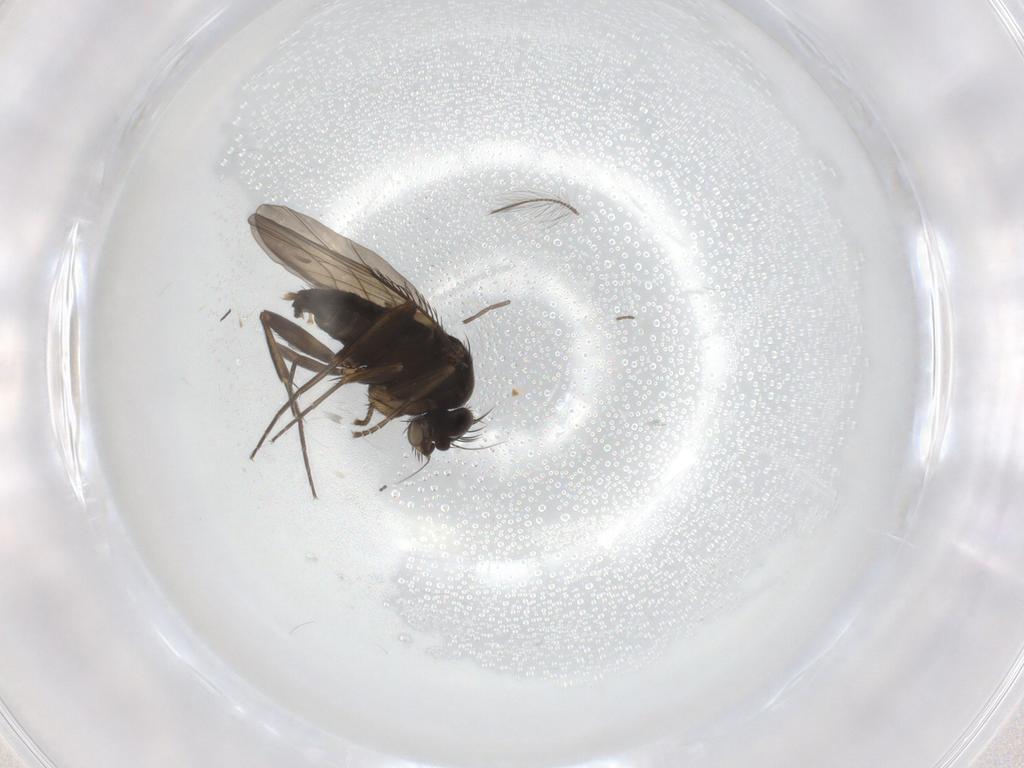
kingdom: Animalia
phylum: Arthropoda
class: Insecta
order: Diptera
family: Phoridae
